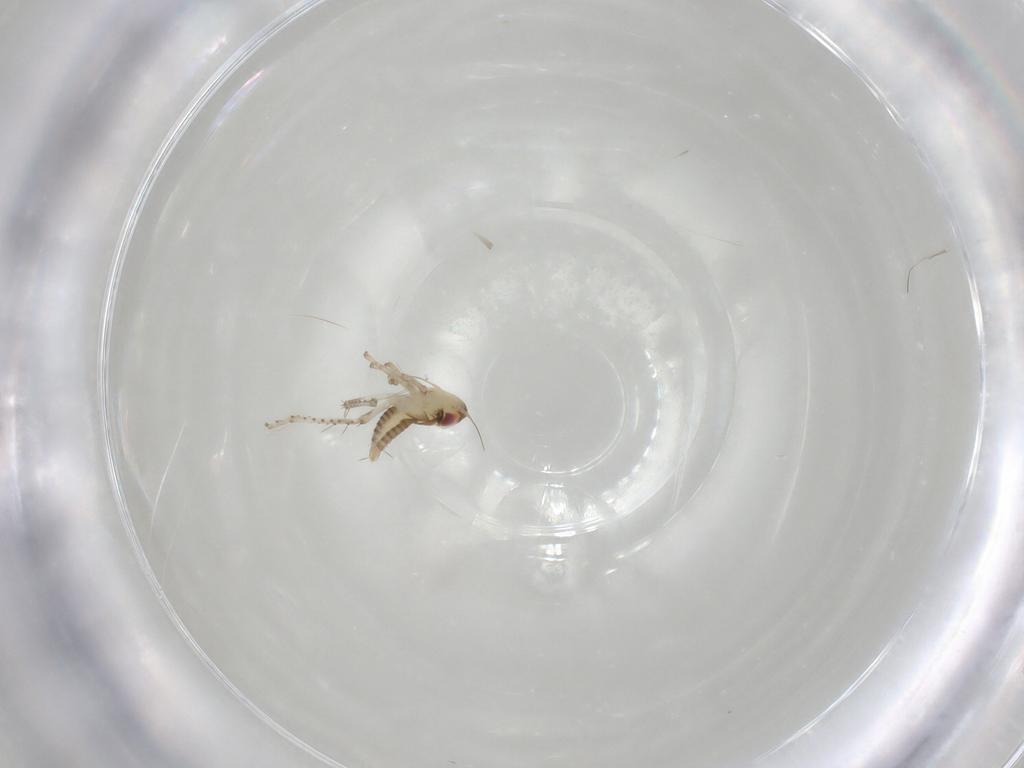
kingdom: Animalia
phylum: Arthropoda
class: Insecta
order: Hemiptera
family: Cicadellidae
